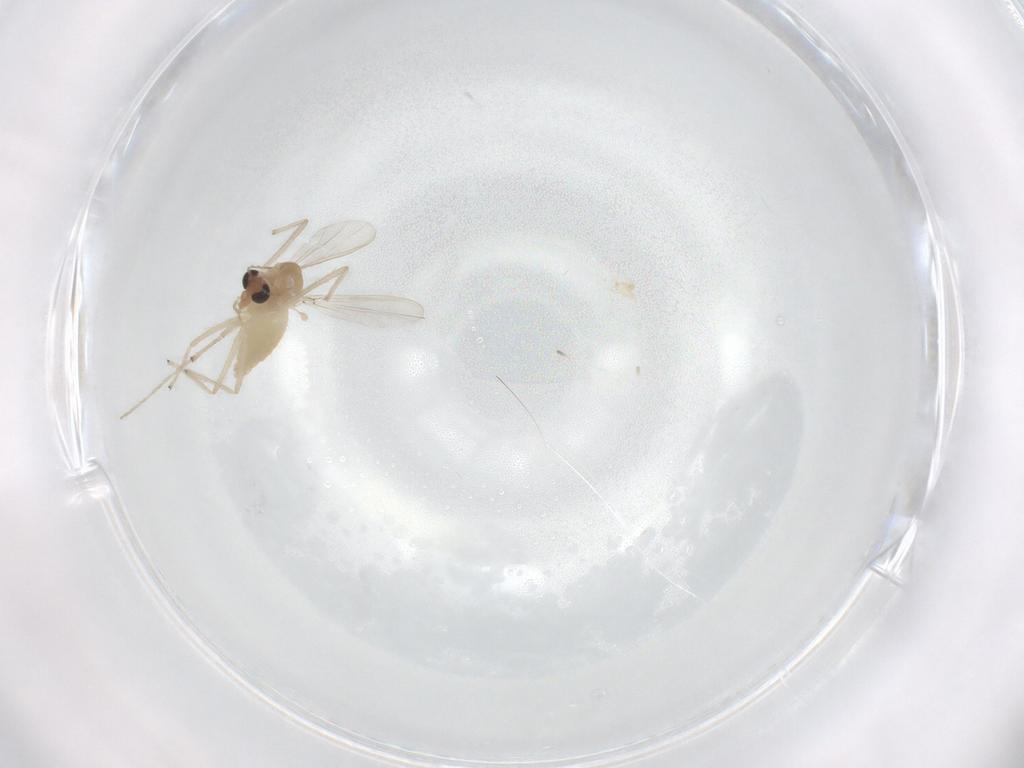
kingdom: Animalia
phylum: Arthropoda
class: Insecta
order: Diptera
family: Chironomidae
